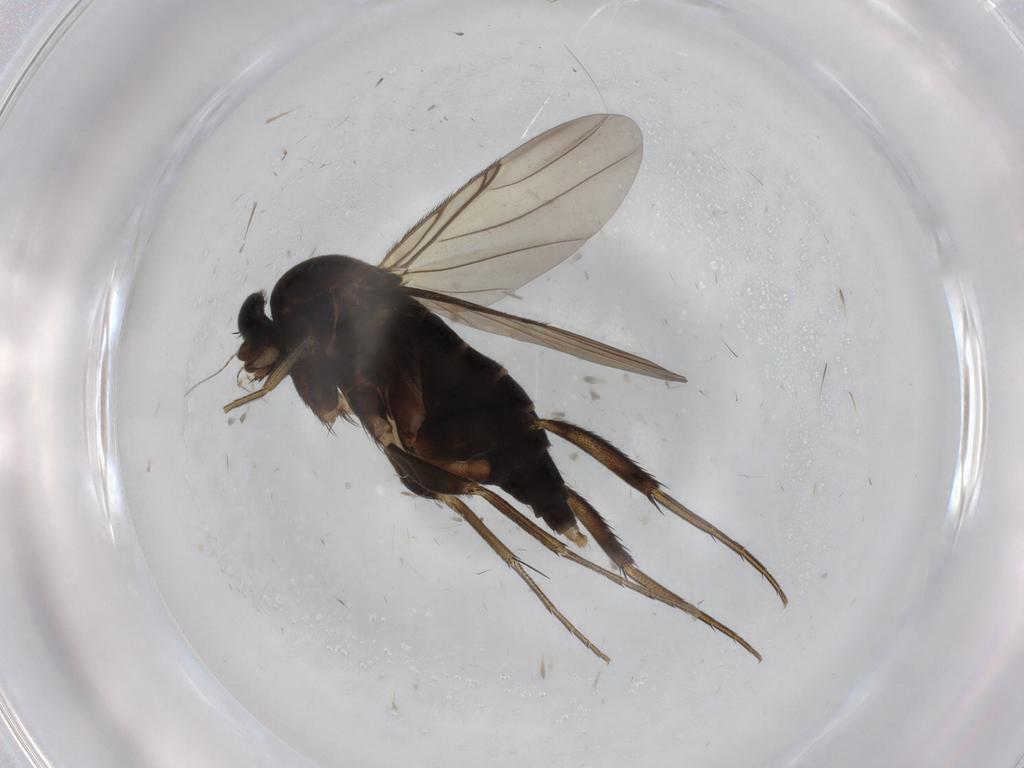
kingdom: Animalia
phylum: Arthropoda
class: Insecta
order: Diptera
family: Phoridae
